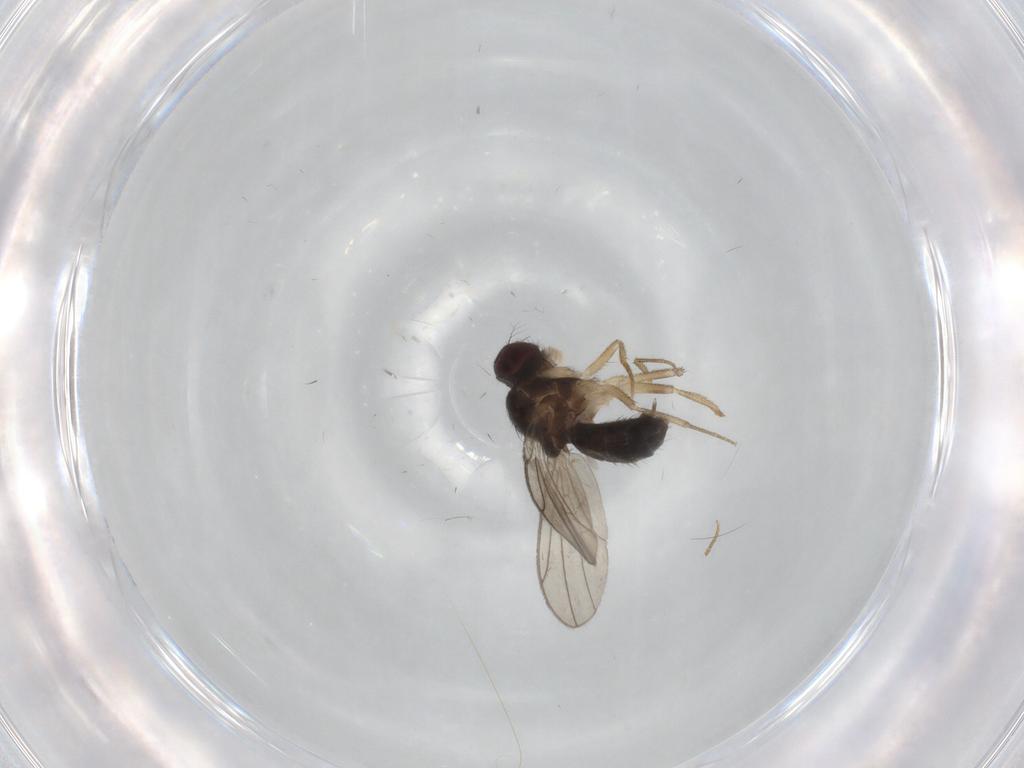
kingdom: Animalia
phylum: Arthropoda
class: Insecta
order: Diptera
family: Drosophilidae
